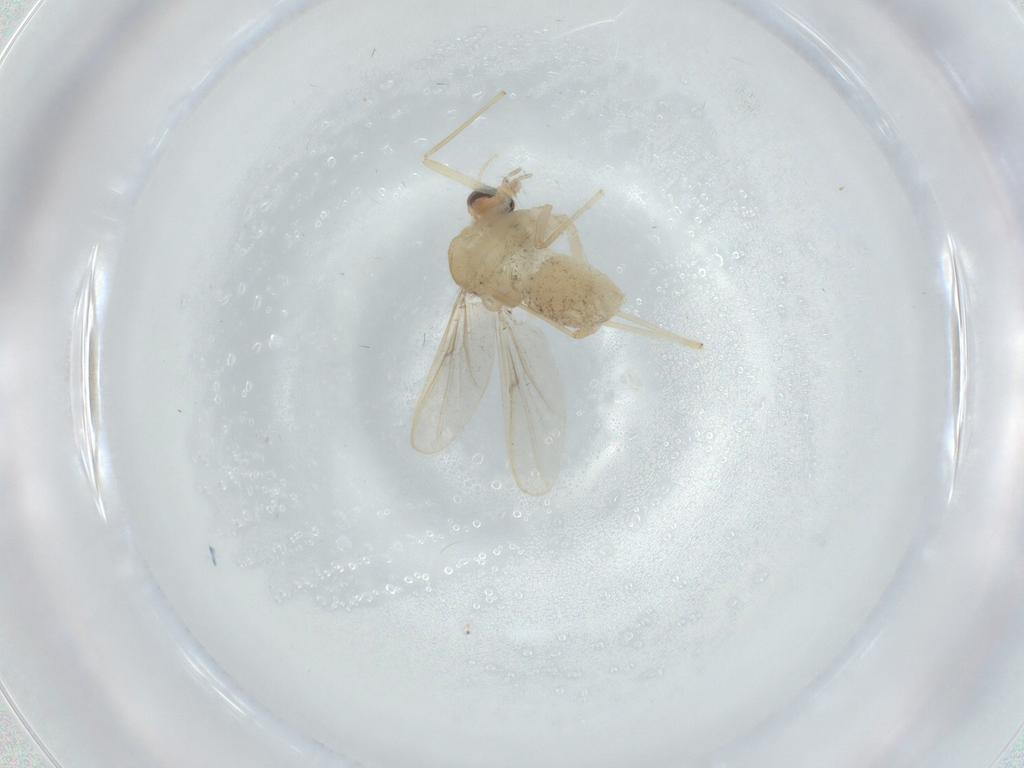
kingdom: Animalia
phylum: Arthropoda
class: Insecta
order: Diptera
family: Chironomidae
